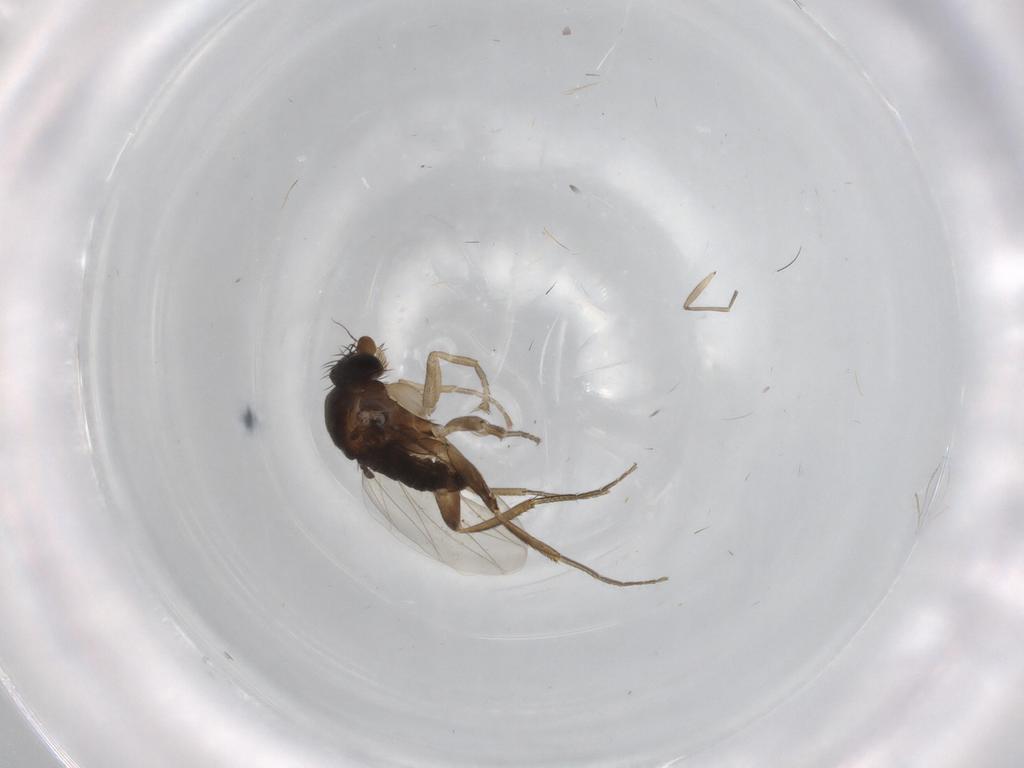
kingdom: Animalia
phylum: Arthropoda
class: Insecta
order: Diptera
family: Phoridae
